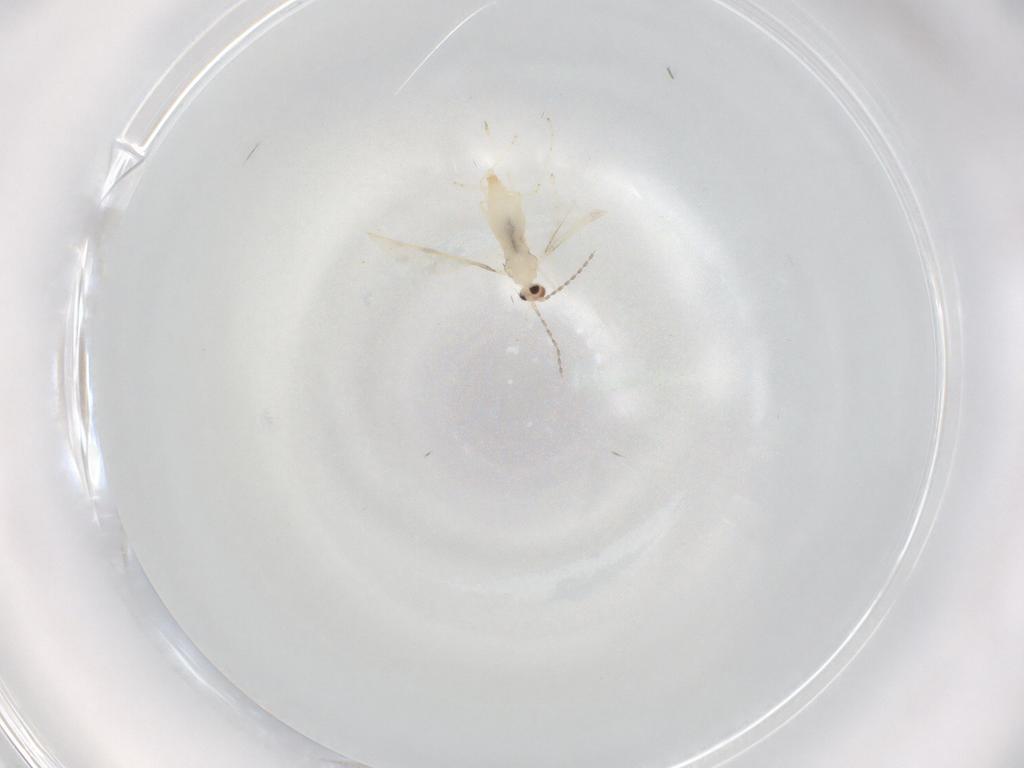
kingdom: Animalia
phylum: Arthropoda
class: Insecta
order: Diptera
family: Cecidomyiidae
